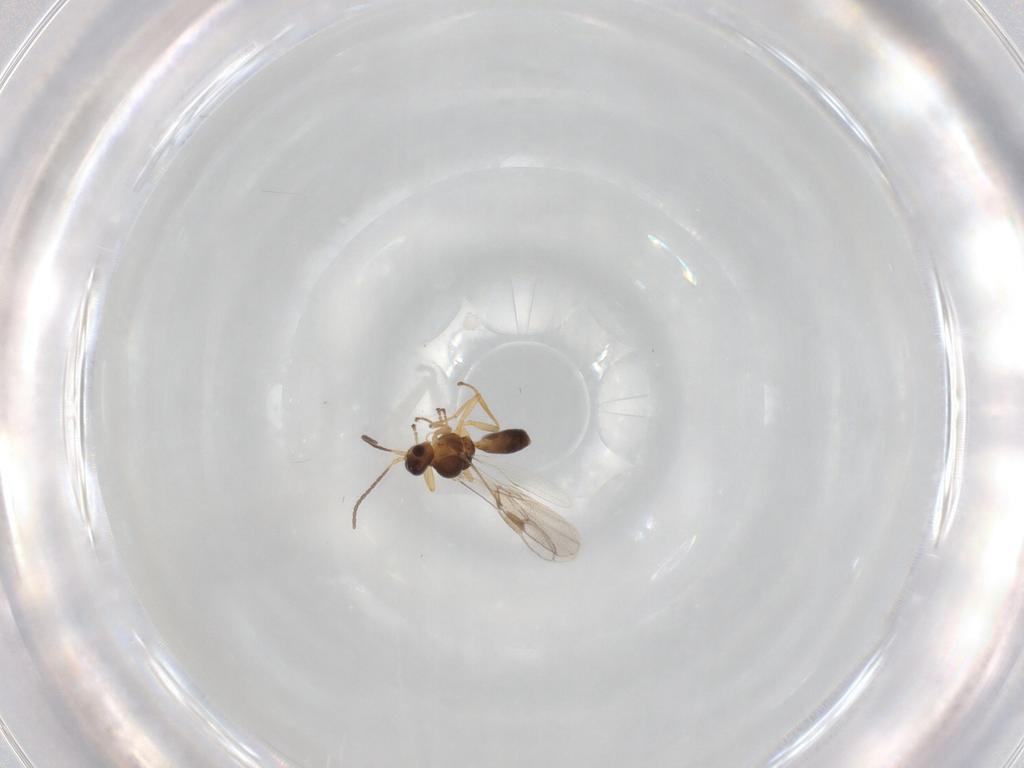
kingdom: Animalia
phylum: Arthropoda
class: Insecta
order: Hymenoptera
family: Braconidae
